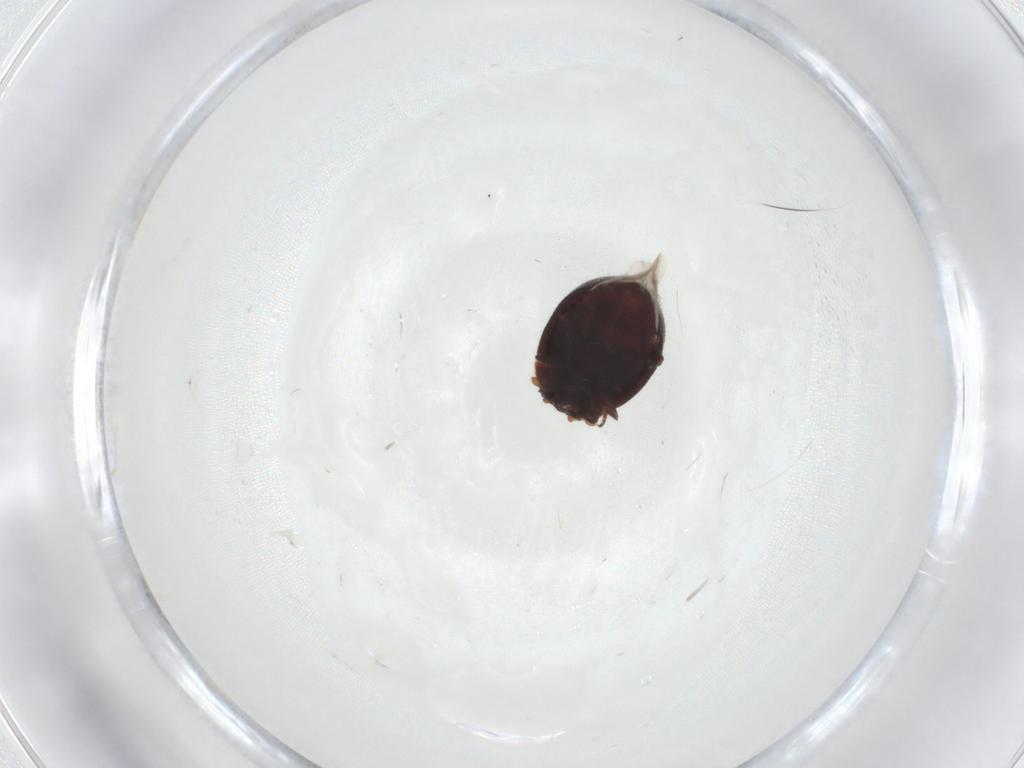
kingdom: Animalia
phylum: Arthropoda
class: Insecta
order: Coleoptera
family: Coccinellidae
